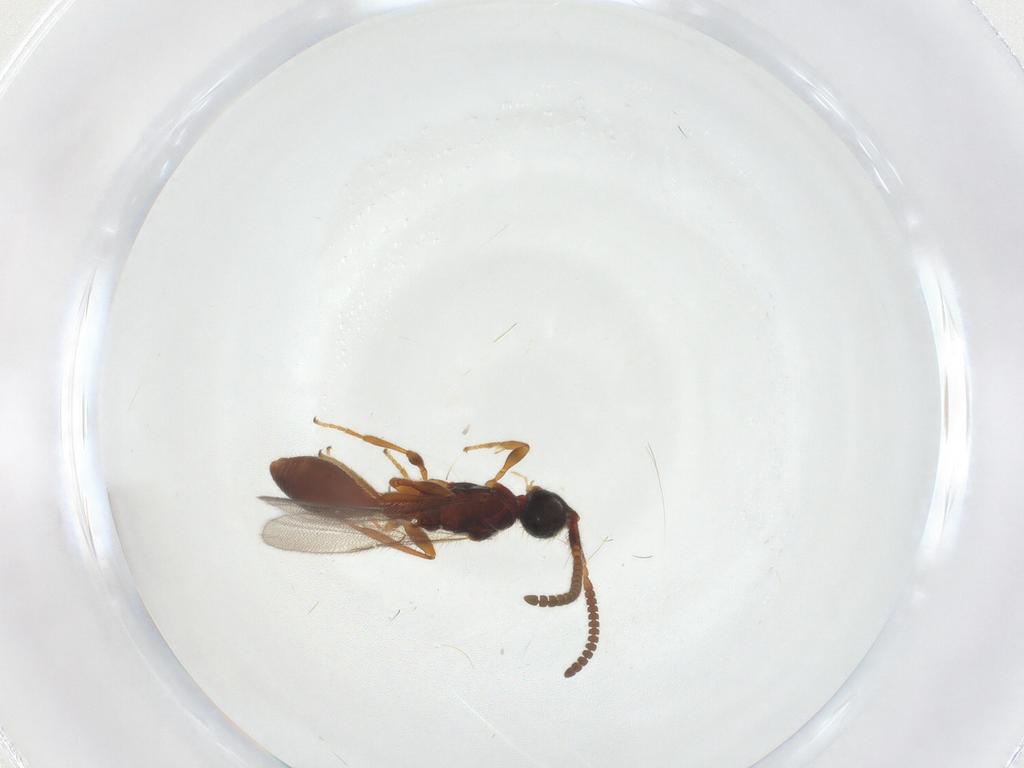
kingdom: Animalia
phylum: Arthropoda
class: Insecta
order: Hymenoptera
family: Diapriidae
